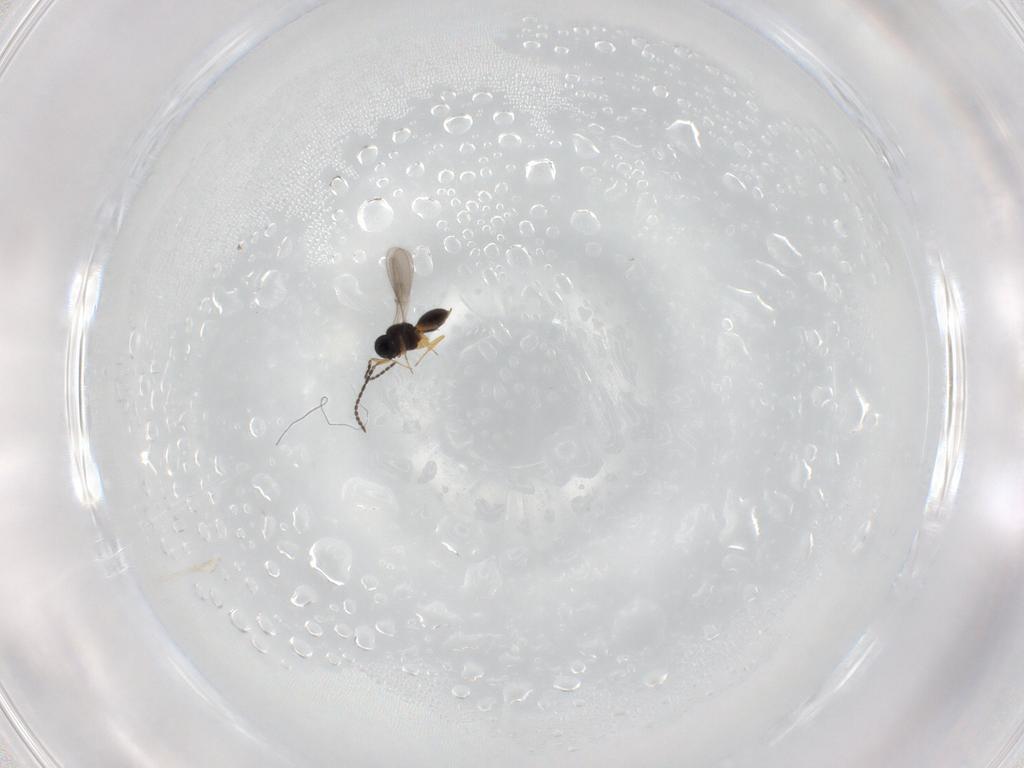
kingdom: Animalia
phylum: Arthropoda
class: Insecta
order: Hymenoptera
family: Scelionidae
